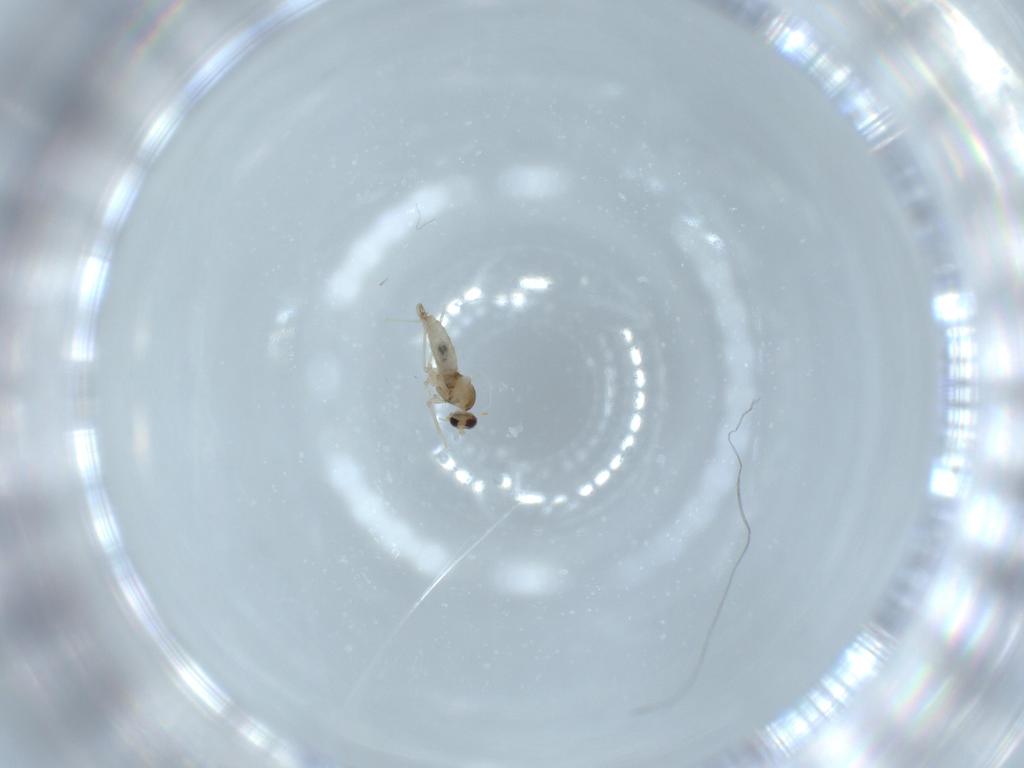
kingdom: Animalia
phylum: Arthropoda
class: Insecta
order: Diptera
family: Cecidomyiidae
